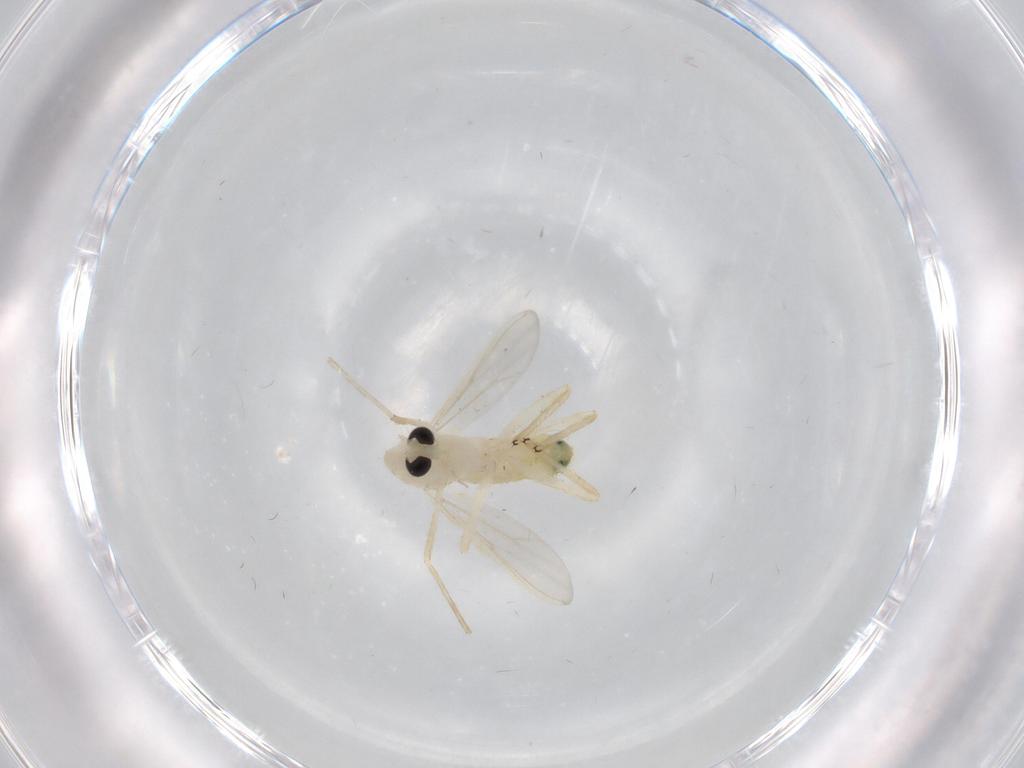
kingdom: Animalia
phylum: Arthropoda
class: Insecta
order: Diptera
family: Chironomidae
